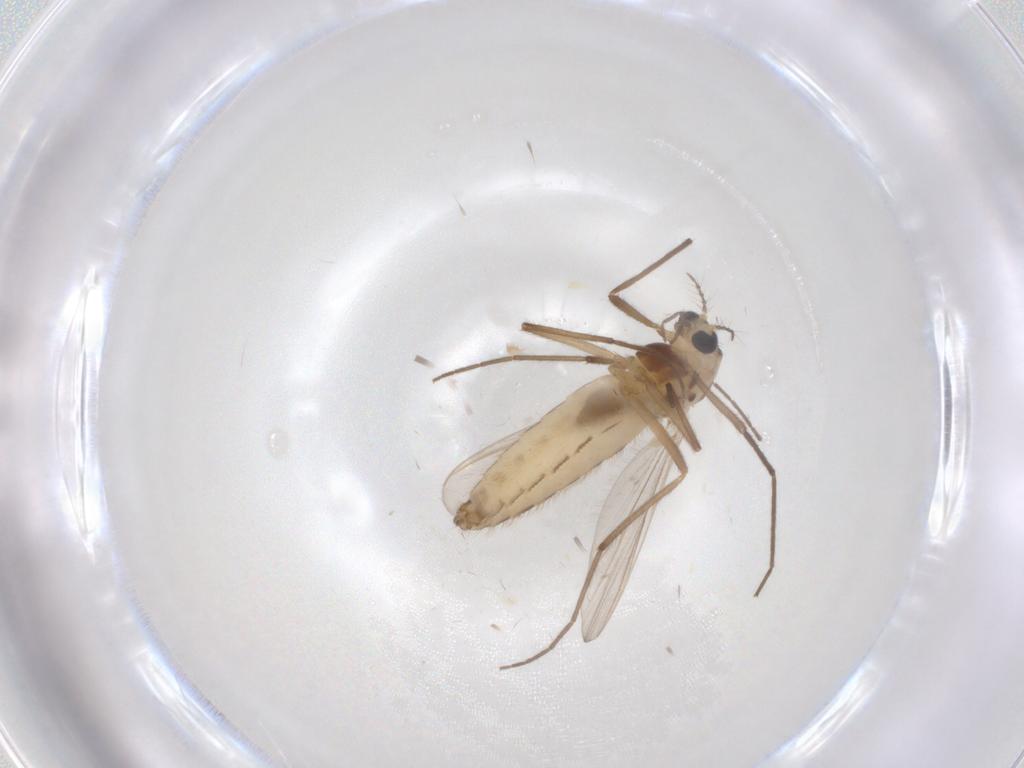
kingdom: Animalia
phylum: Arthropoda
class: Insecta
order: Diptera
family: Chironomidae
